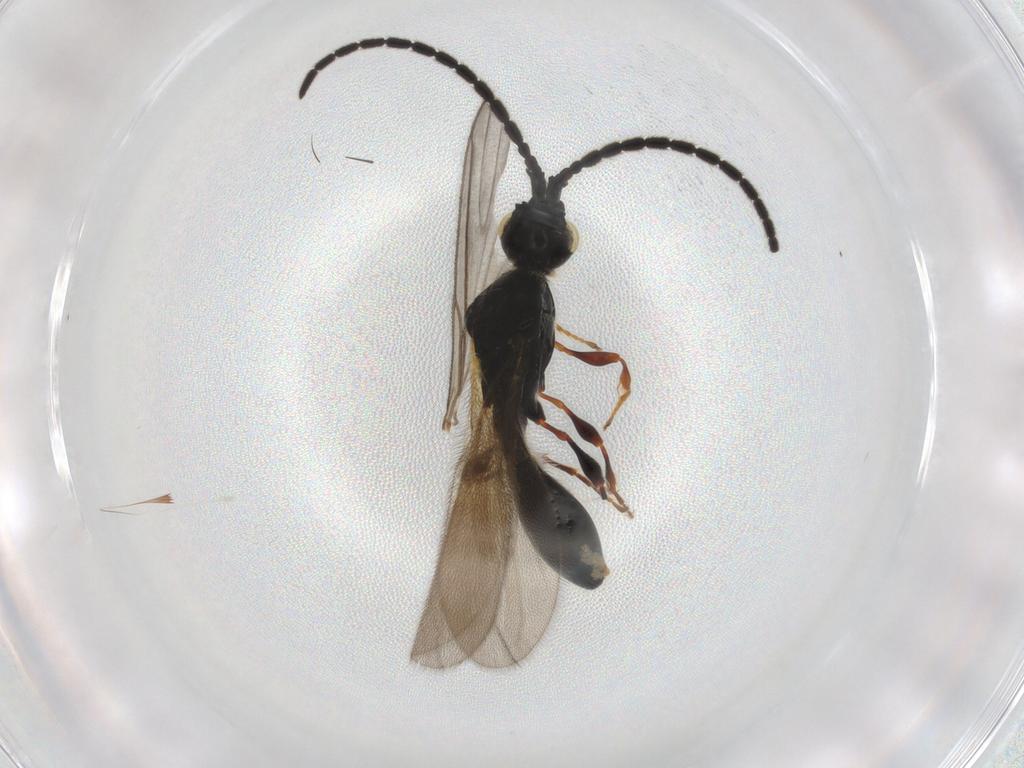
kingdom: Animalia
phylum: Arthropoda
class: Insecta
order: Hymenoptera
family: Diapriidae
